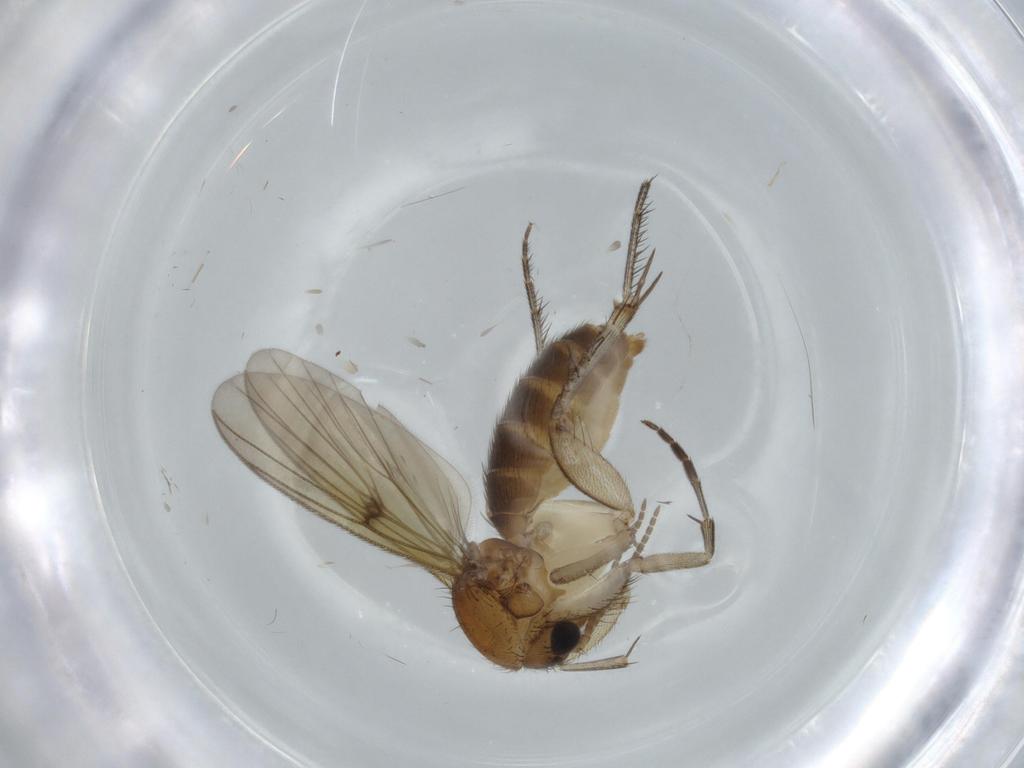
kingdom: Animalia
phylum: Arthropoda
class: Insecta
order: Diptera
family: Mycetophilidae
